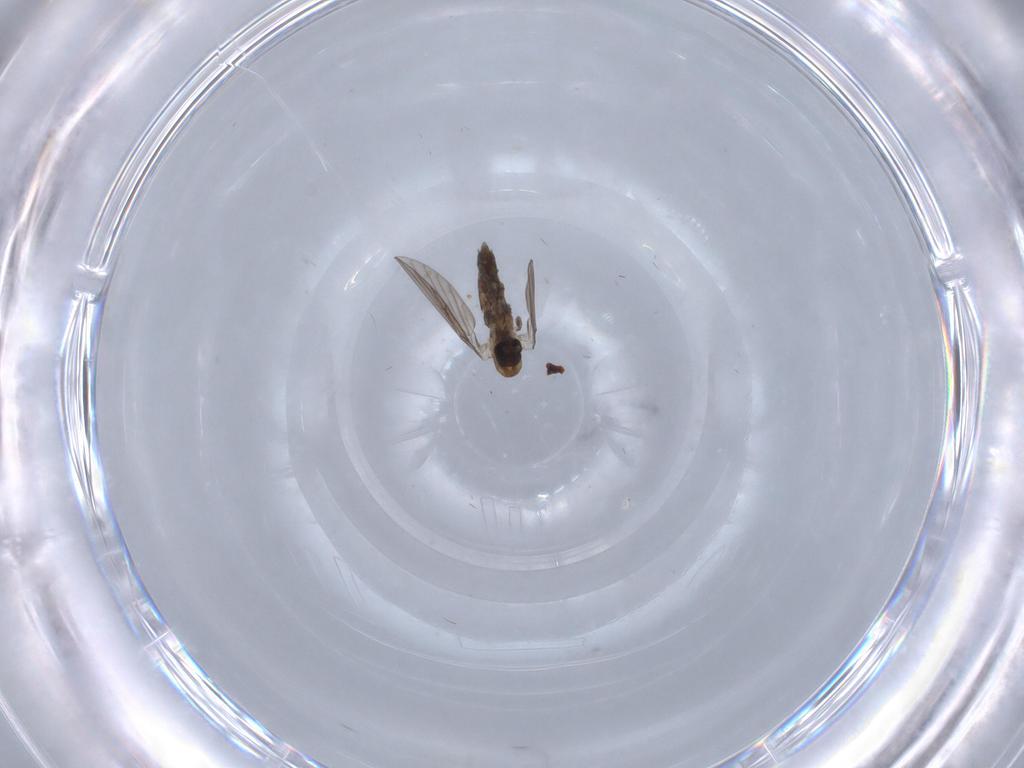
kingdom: Animalia
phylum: Arthropoda
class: Insecta
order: Diptera
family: Psychodidae
